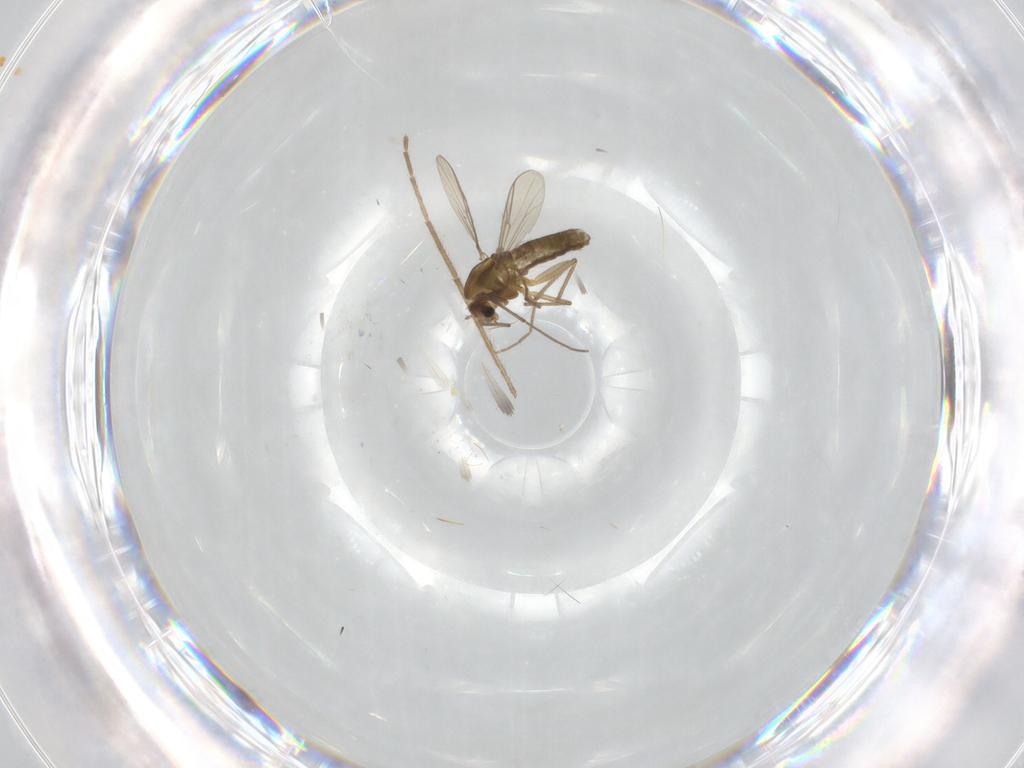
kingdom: Animalia
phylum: Arthropoda
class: Insecta
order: Diptera
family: Chironomidae
